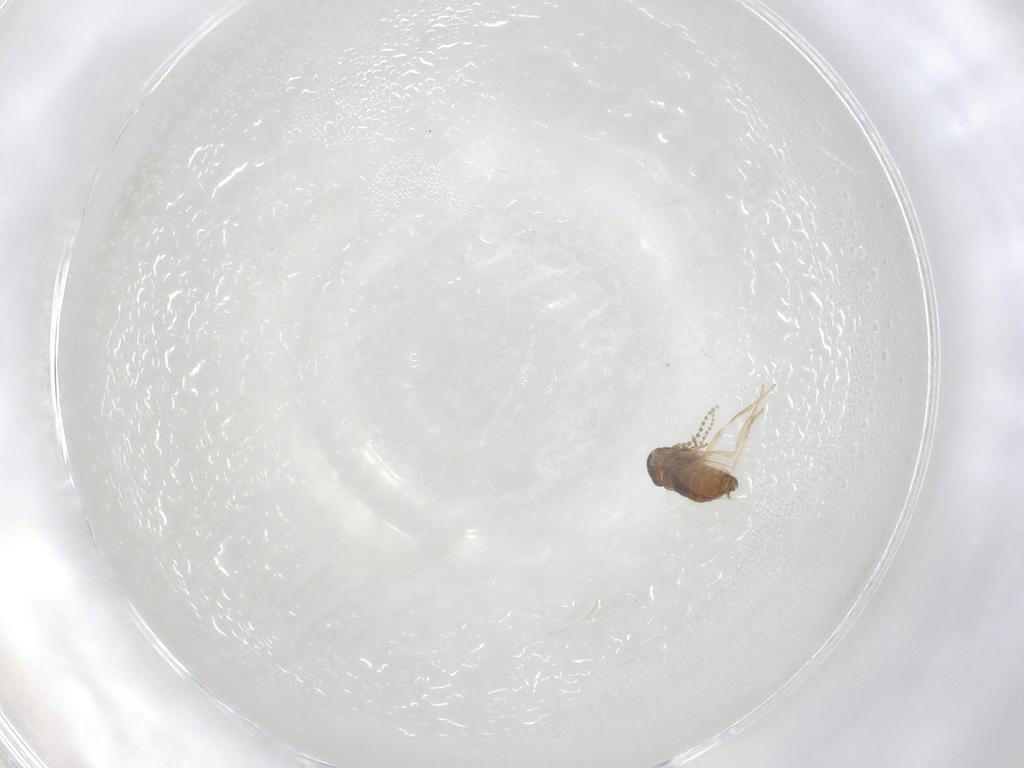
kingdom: Animalia
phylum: Arthropoda
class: Insecta
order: Diptera
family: Psychodidae
